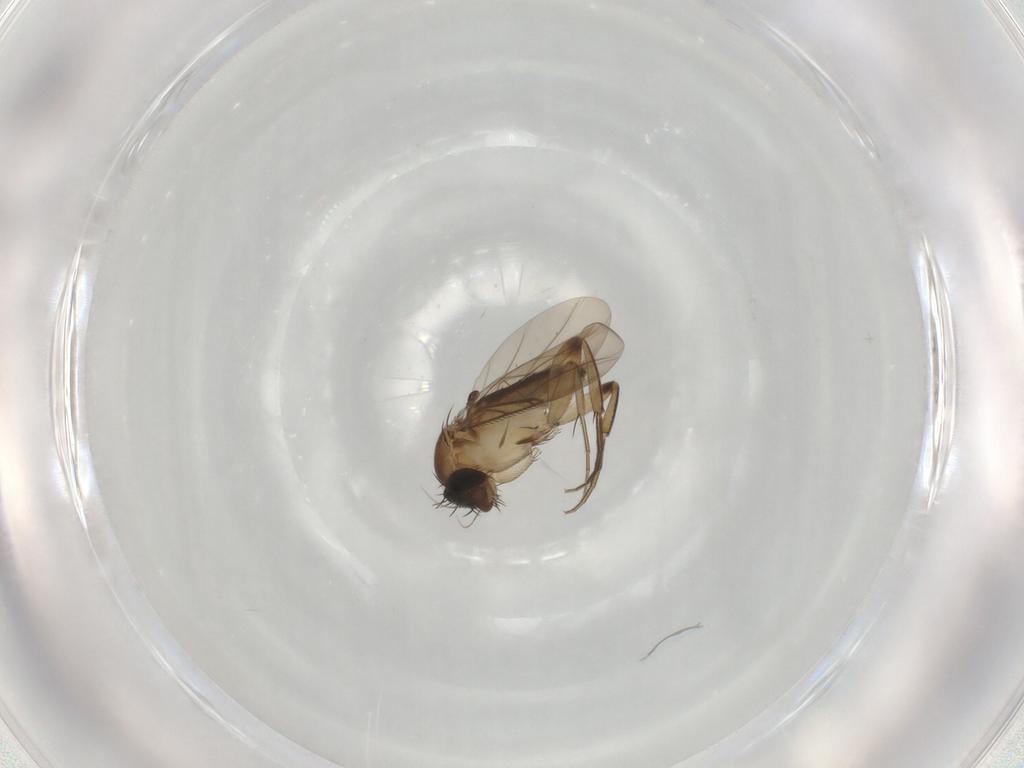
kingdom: Animalia
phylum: Arthropoda
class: Insecta
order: Diptera
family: Phoridae
